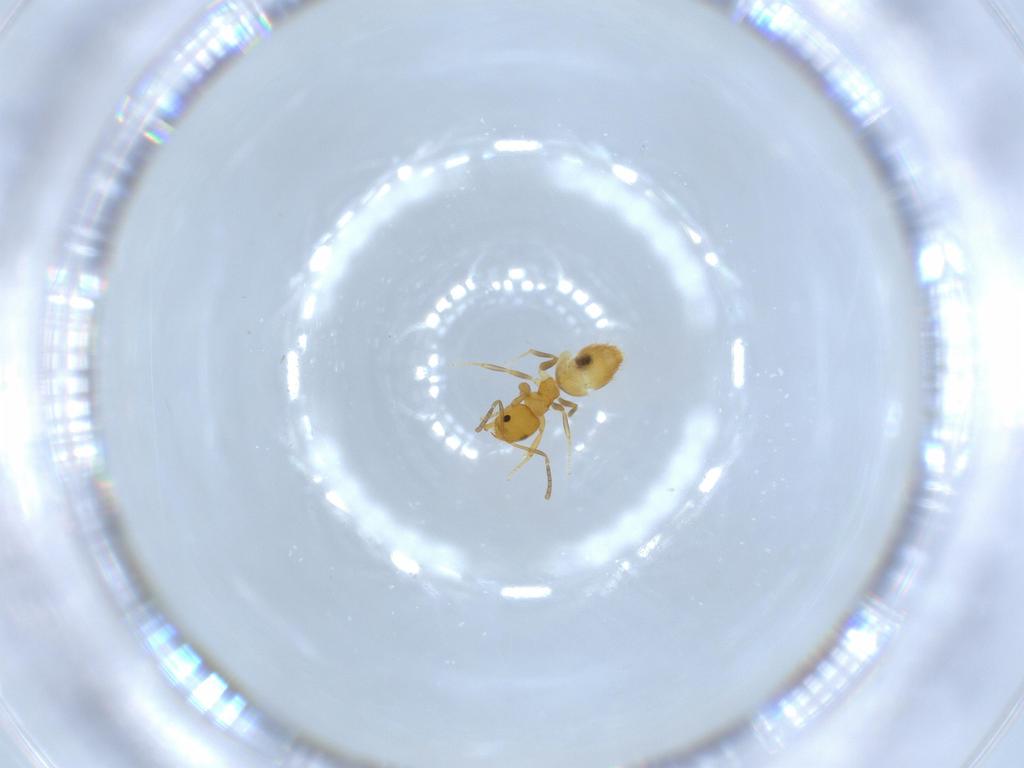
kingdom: Animalia
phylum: Arthropoda
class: Insecta
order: Hymenoptera
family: Formicidae
